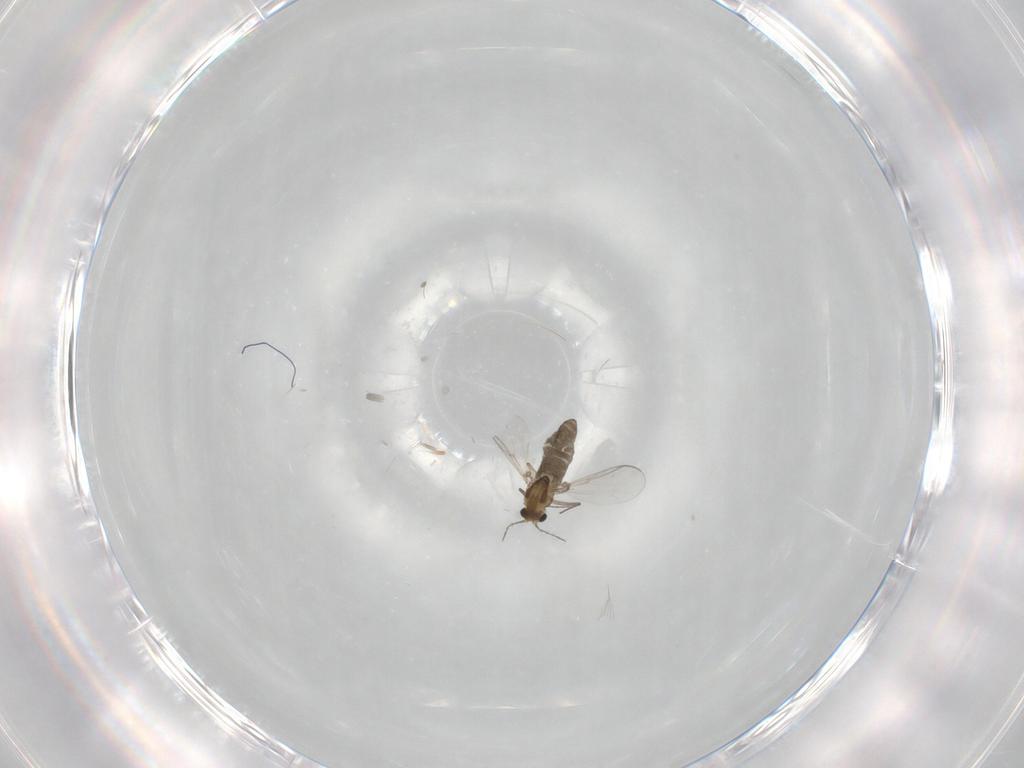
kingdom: Animalia
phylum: Arthropoda
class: Insecta
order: Diptera
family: Chironomidae
